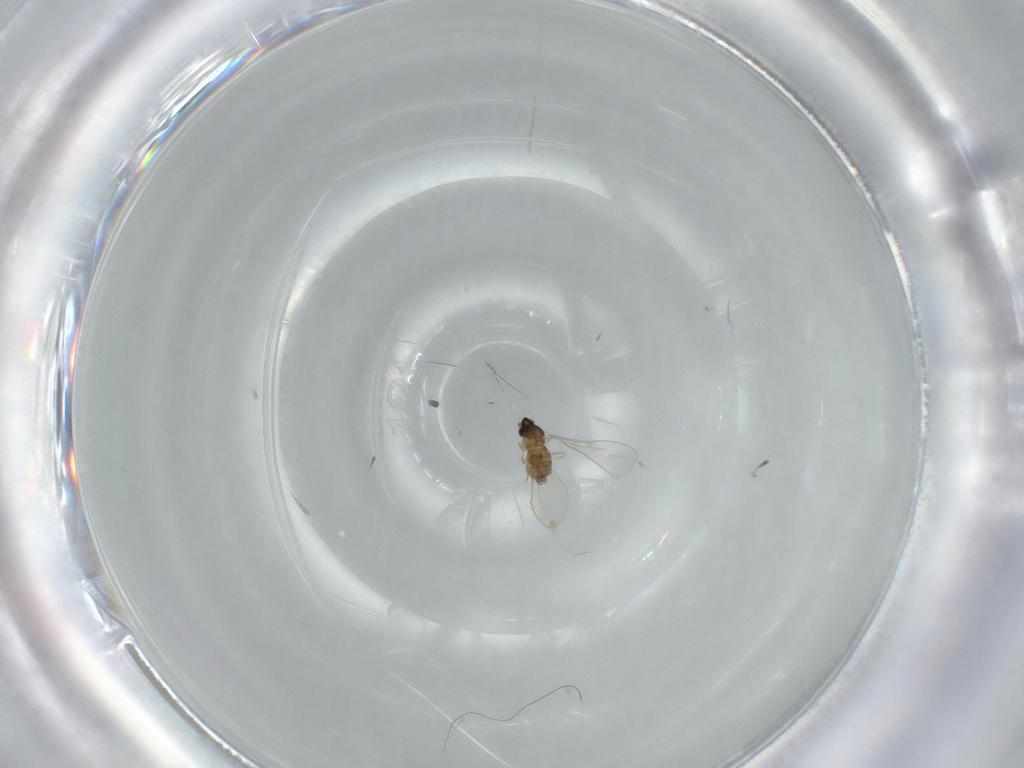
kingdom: Animalia
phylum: Arthropoda
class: Insecta
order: Diptera
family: Cecidomyiidae
